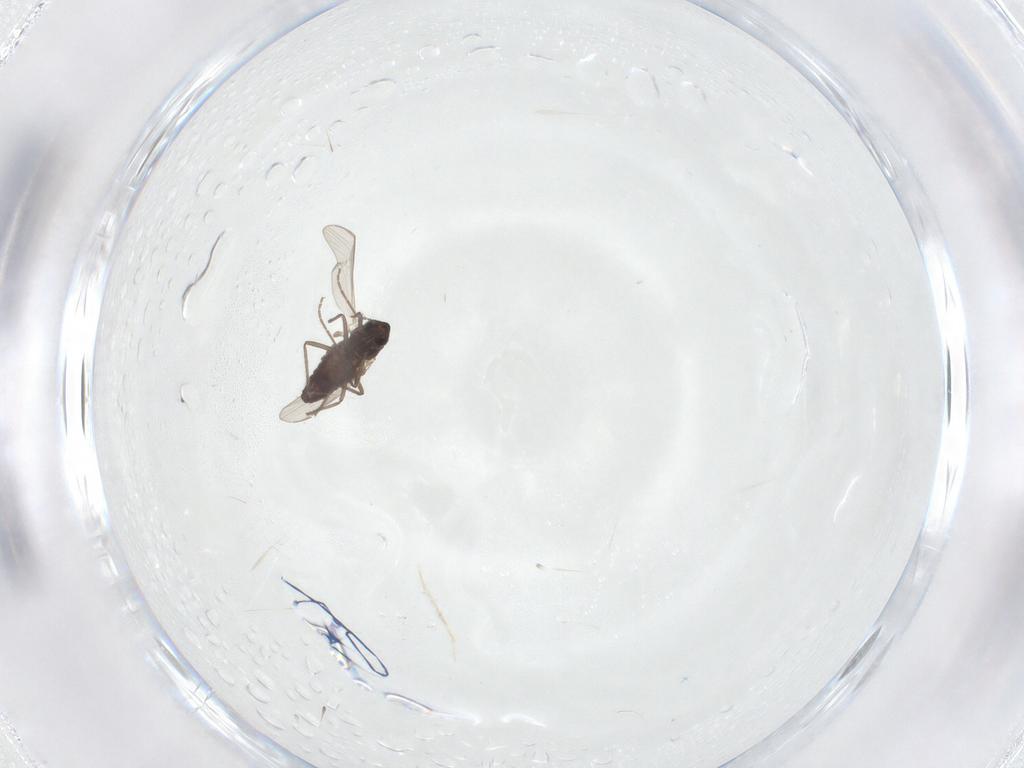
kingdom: Animalia
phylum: Arthropoda
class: Insecta
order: Diptera
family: Chironomidae
